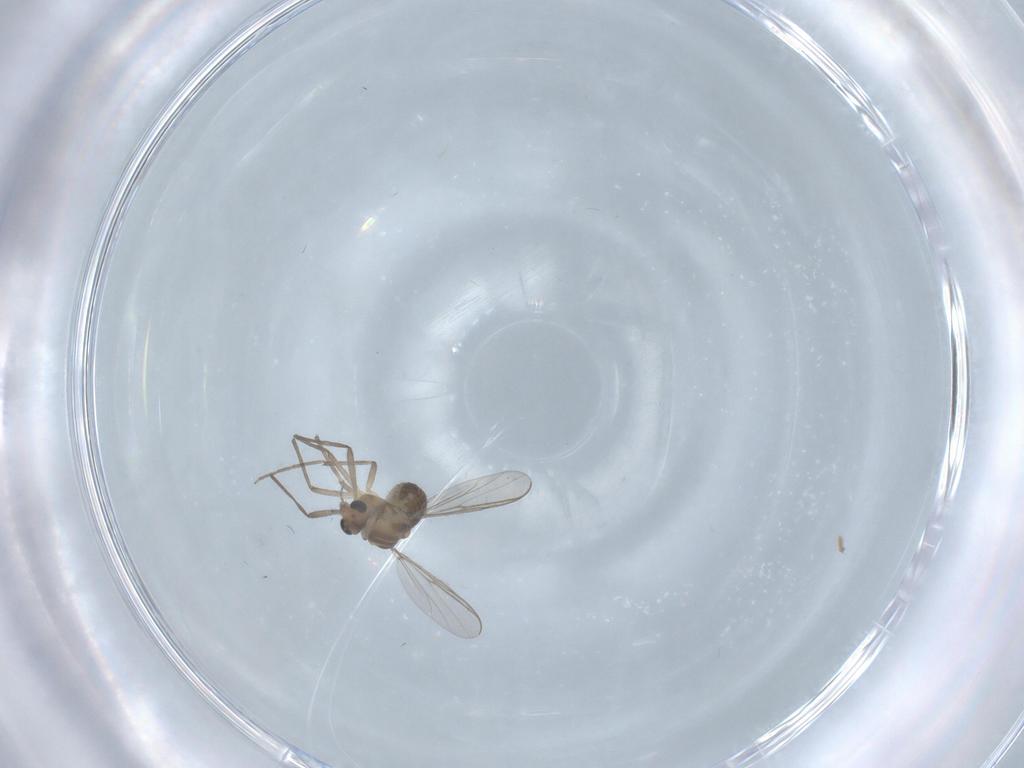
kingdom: Animalia
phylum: Arthropoda
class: Insecta
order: Diptera
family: Chironomidae
